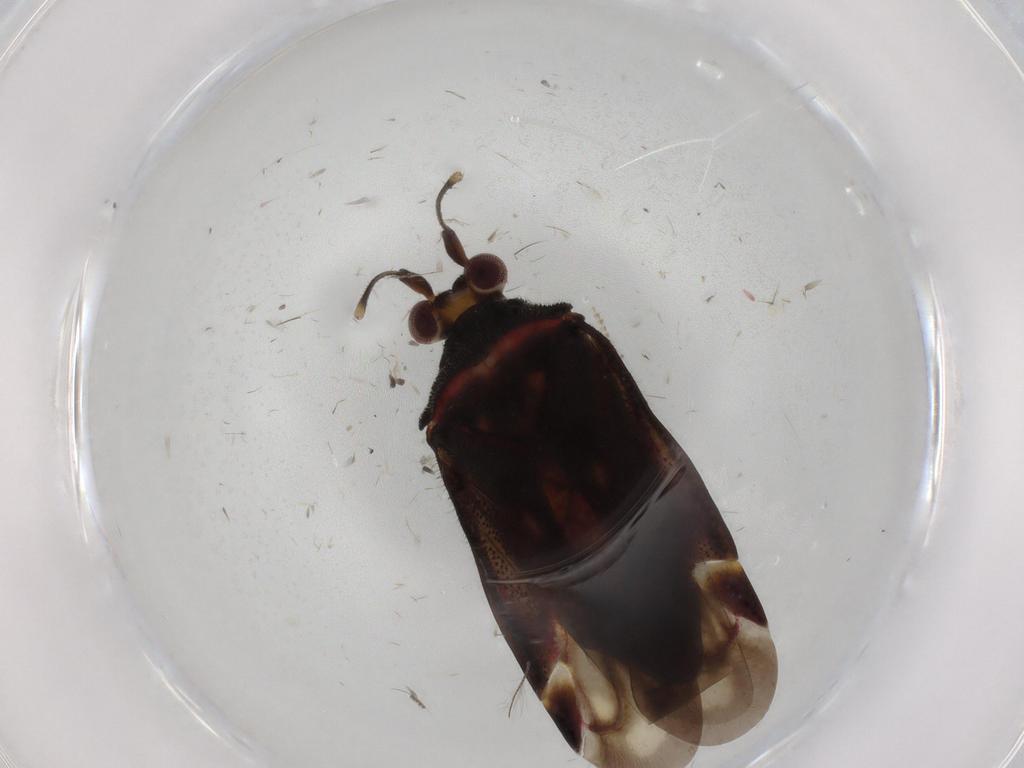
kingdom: Animalia
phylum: Arthropoda
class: Insecta
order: Hemiptera
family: Miridae
